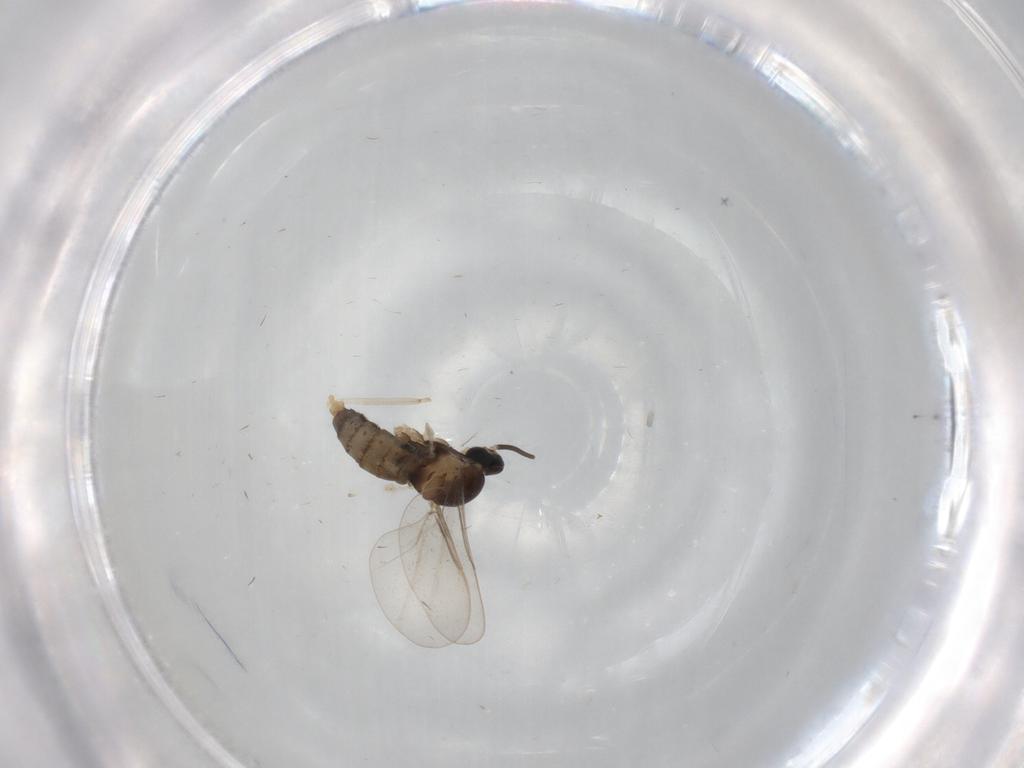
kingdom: Animalia
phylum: Arthropoda
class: Insecta
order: Diptera
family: Cecidomyiidae
